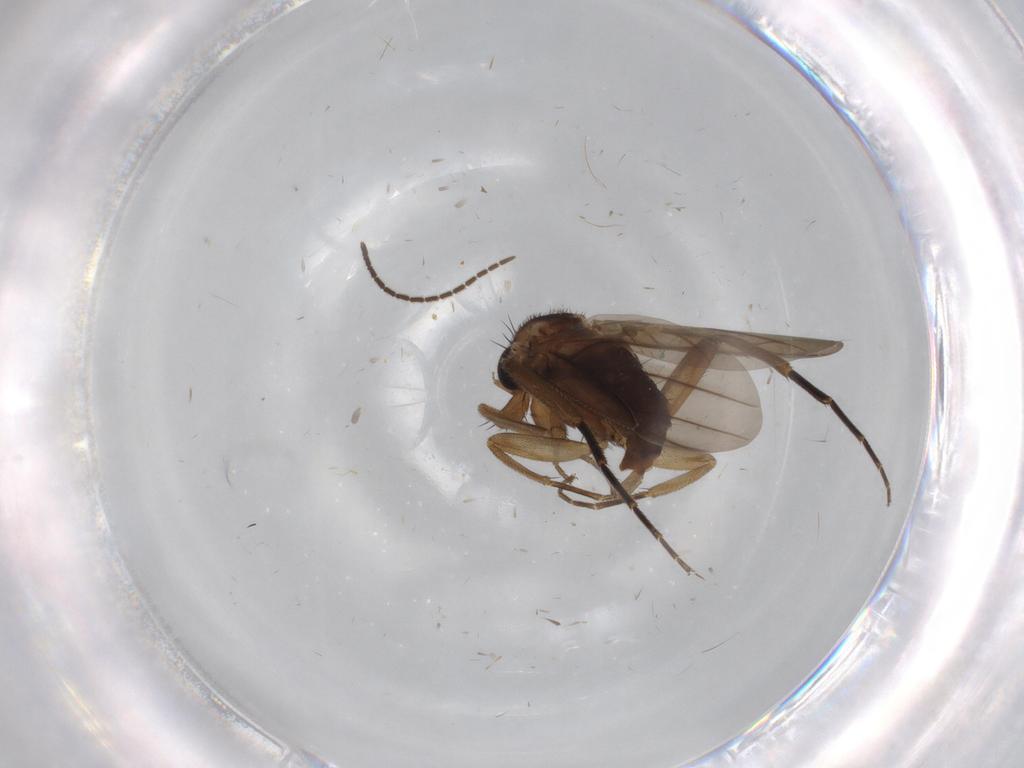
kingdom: Animalia
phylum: Arthropoda
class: Insecta
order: Diptera
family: Sciaridae
